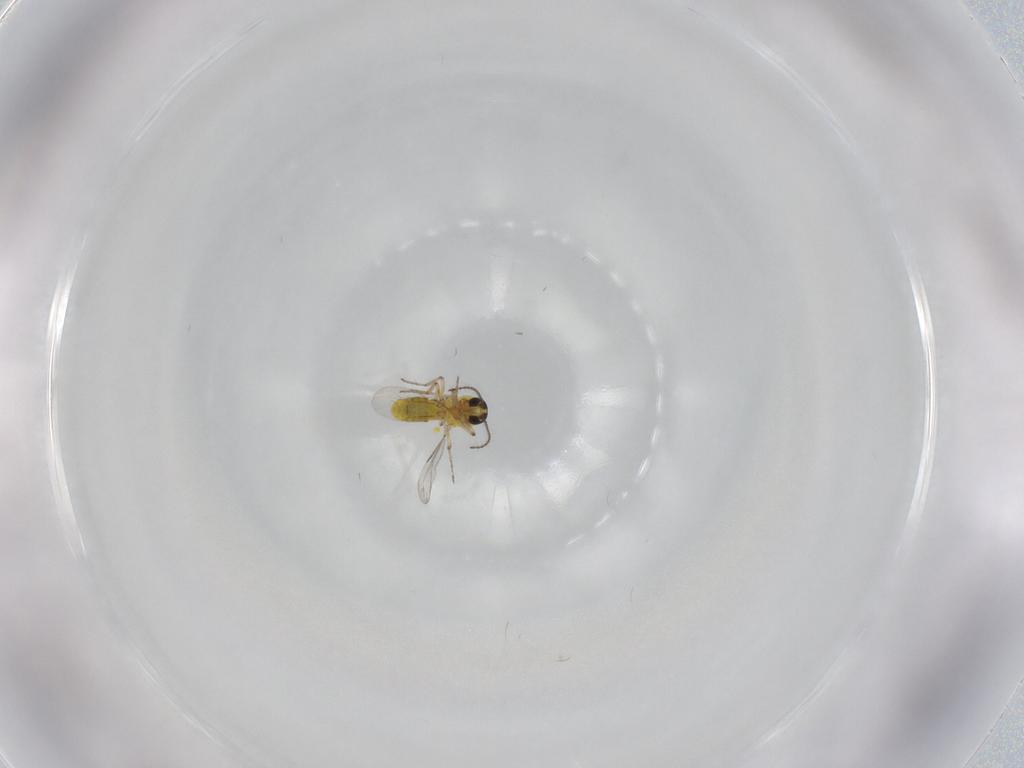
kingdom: Animalia
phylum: Arthropoda
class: Insecta
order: Diptera
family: Ceratopogonidae
